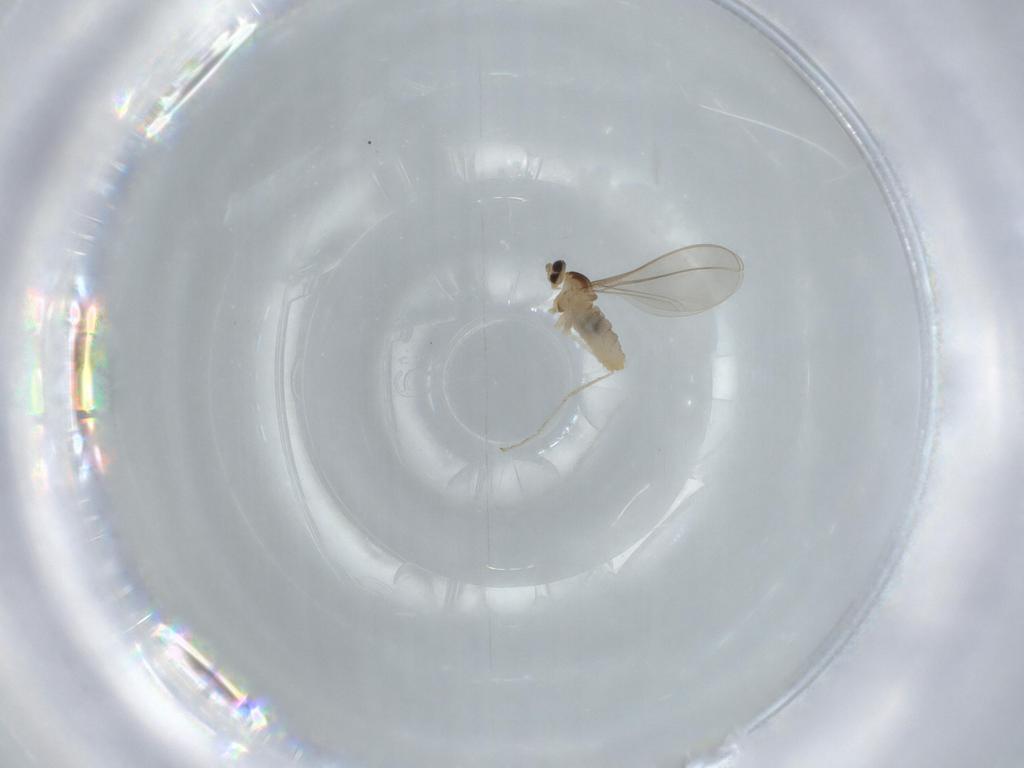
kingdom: Animalia
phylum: Arthropoda
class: Insecta
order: Diptera
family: Cecidomyiidae
